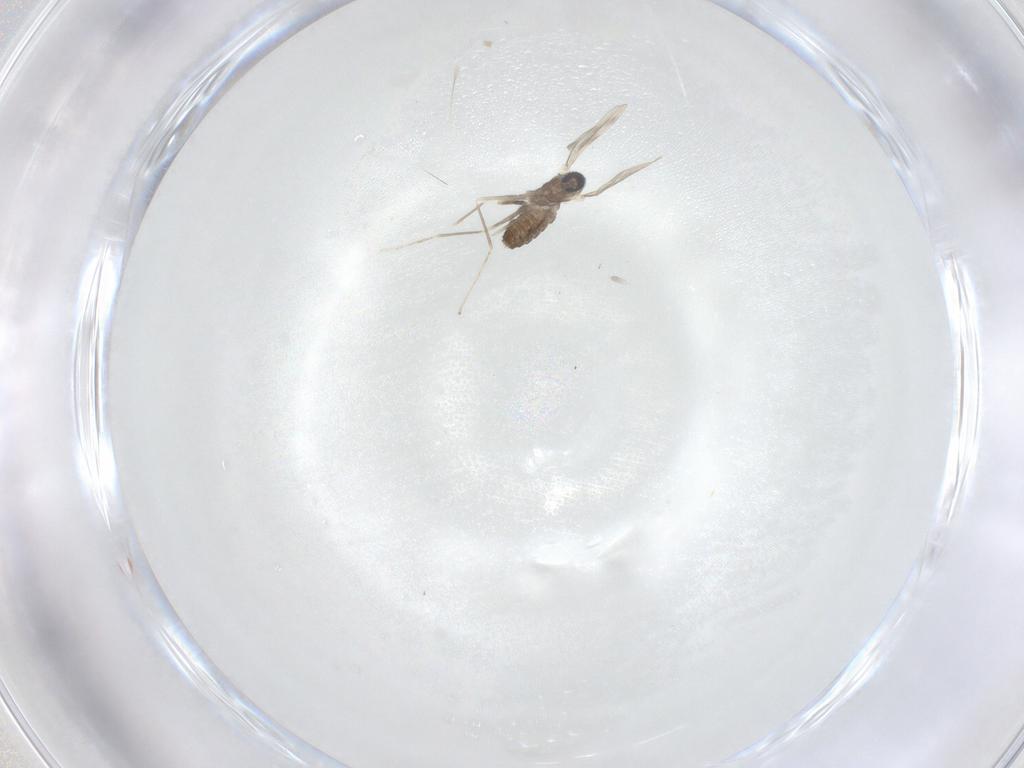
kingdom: Animalia
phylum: Arthropoda
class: Insecta
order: Diptera
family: Cecidomyiidae
